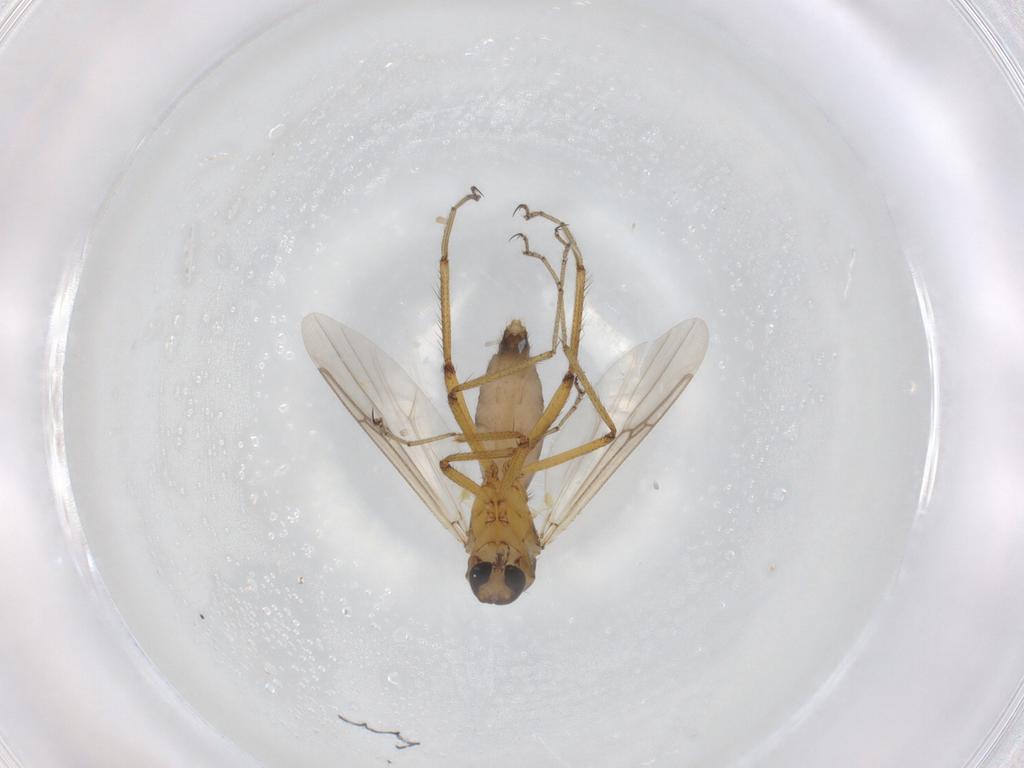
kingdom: Animalia
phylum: Arthropoda
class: Insecta
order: Diptera
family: Ceratopogonidae
